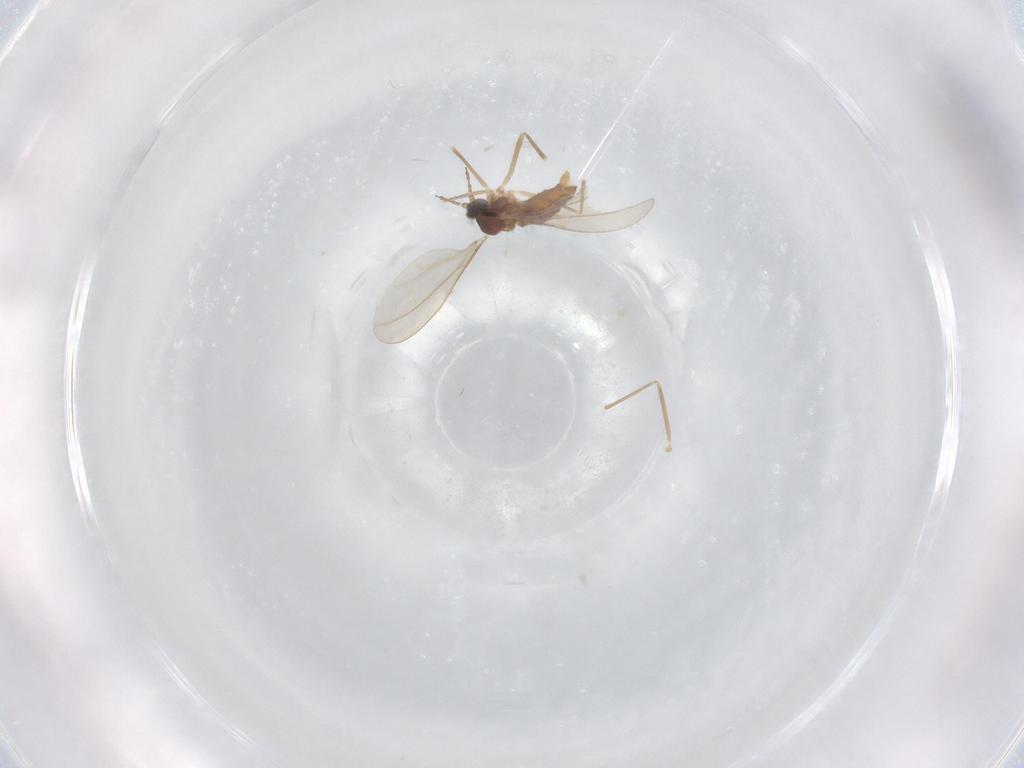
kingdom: Animalia
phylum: Arthropoda
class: Insecta
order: Diptera
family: Cecidomyiidae
